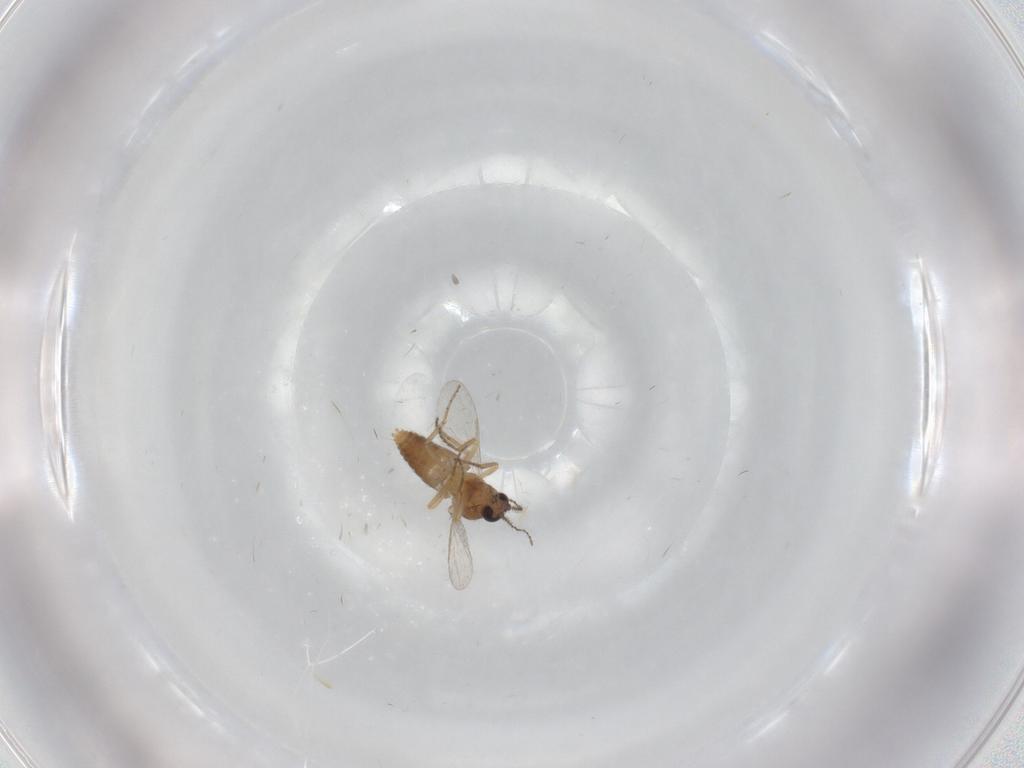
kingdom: Animalia
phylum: Arthropoda
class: Insecta
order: Diptera
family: Ceratopogonidae
